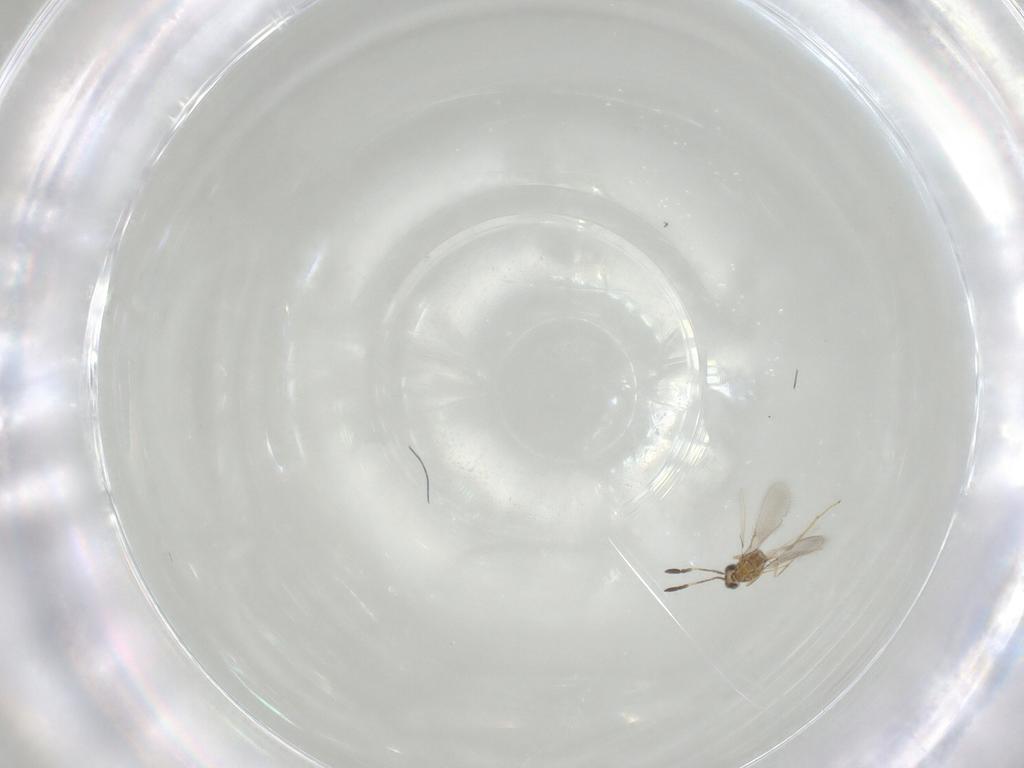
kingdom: Animalia
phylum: Arthropoda
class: Insecta
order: Hymenoptera
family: Mymaridae
